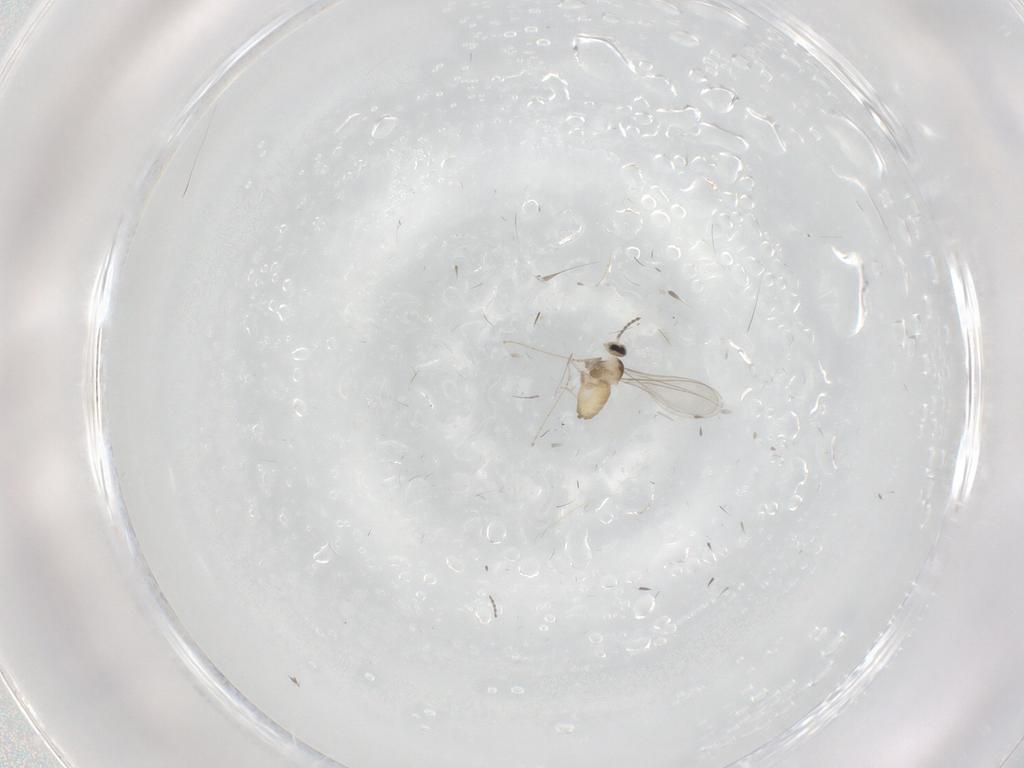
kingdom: Animalia
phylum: Arthropoda
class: Insecta
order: Diptera
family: Cecidomyiidae
